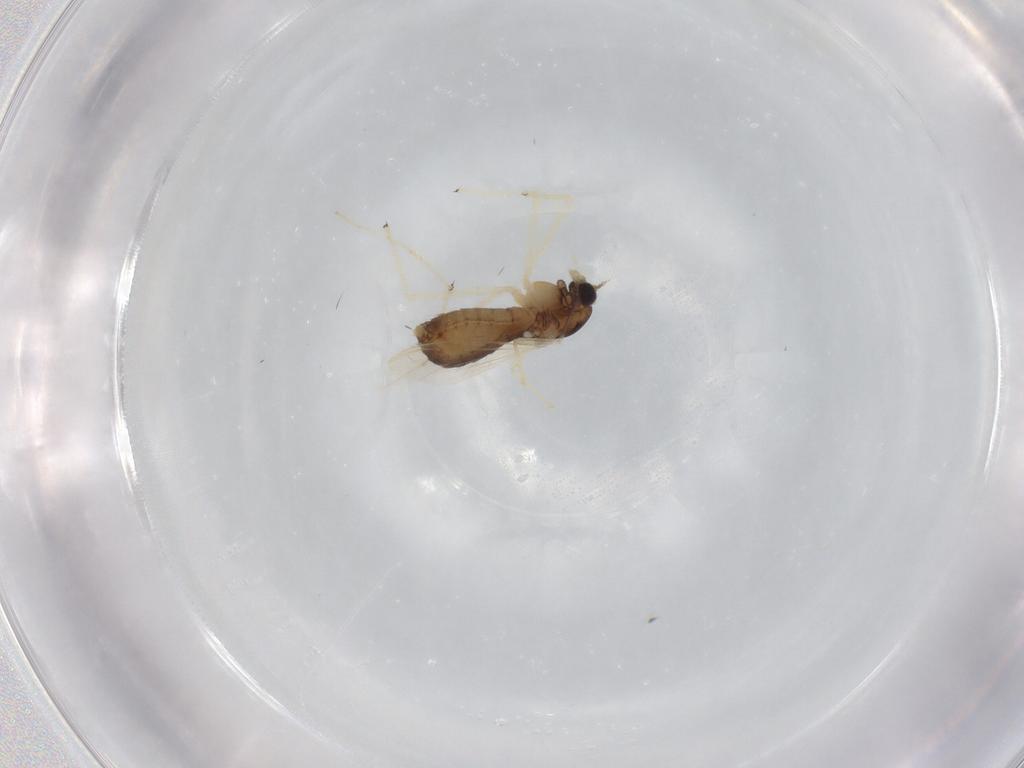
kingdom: Animalia
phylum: Arthropoda
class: Insecta
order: Diptera
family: Chironomidae
